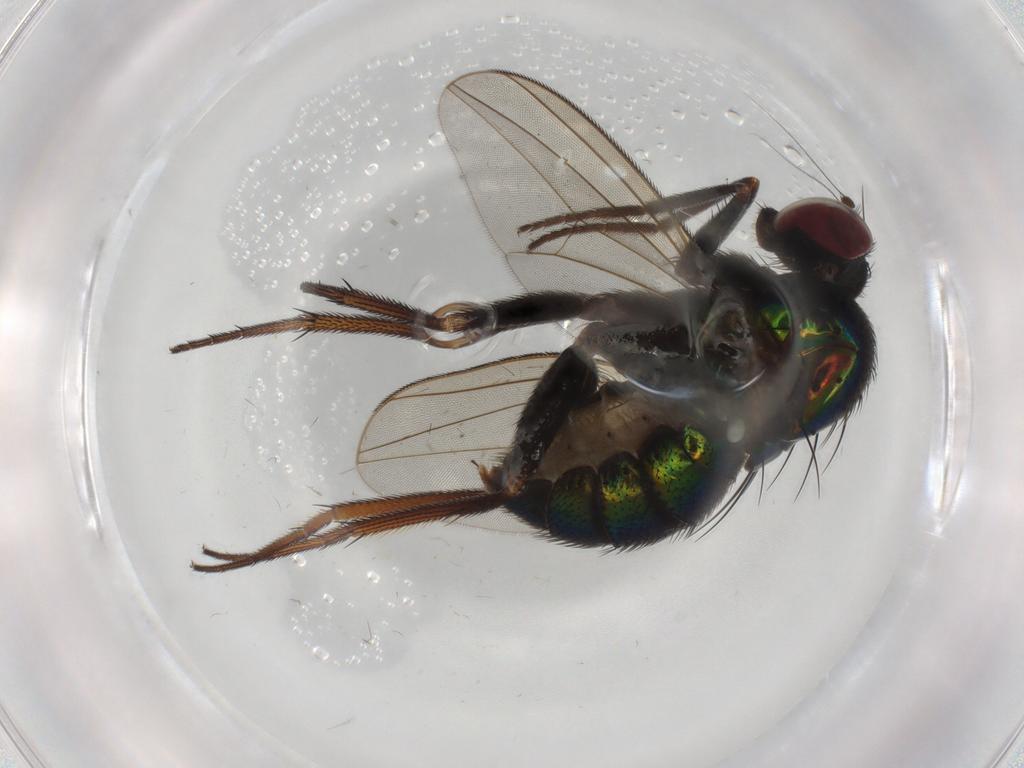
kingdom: Animalia
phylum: Arthropoda
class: Insecta
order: Diptera
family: Dolichopodidae
